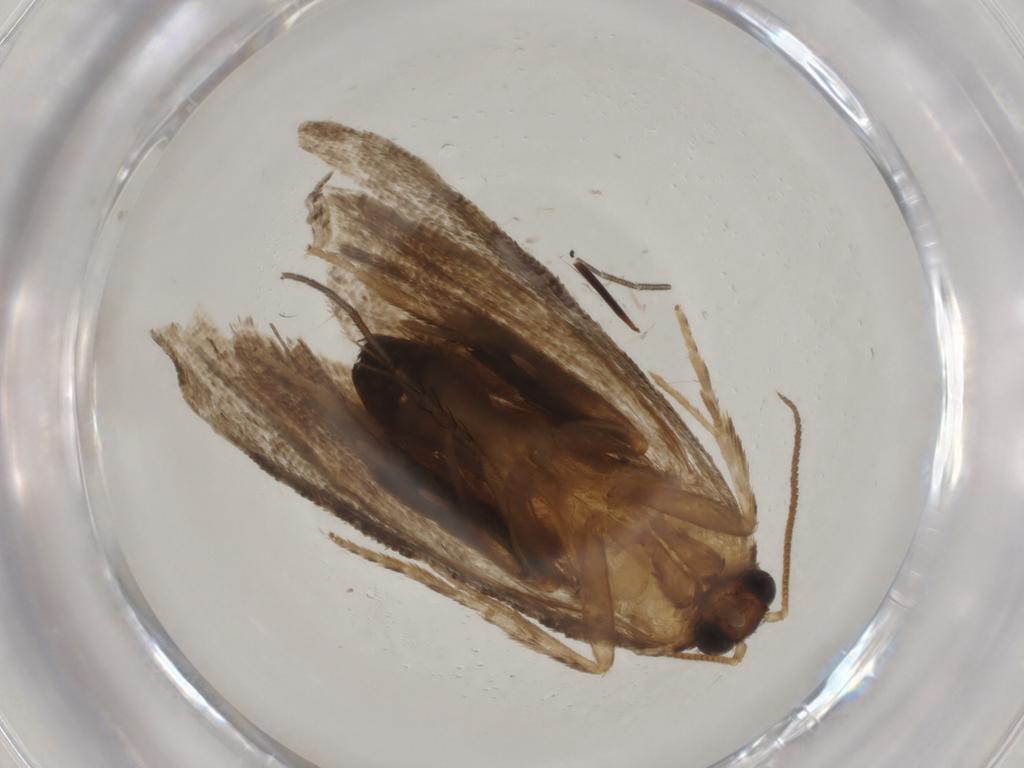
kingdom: Animalia
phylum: Arthropoda
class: Insecta
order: Lepidoptera
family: Tortricidae
